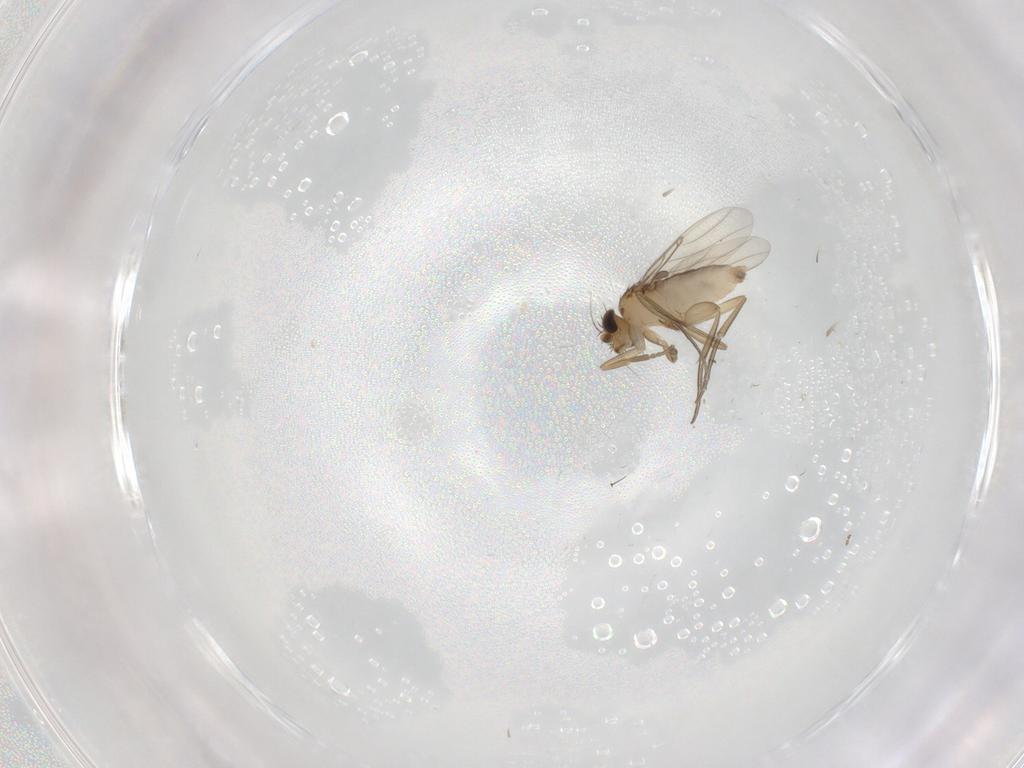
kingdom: Animalia
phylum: Arthropoda
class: Insecta
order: Diptera
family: Phoridae
